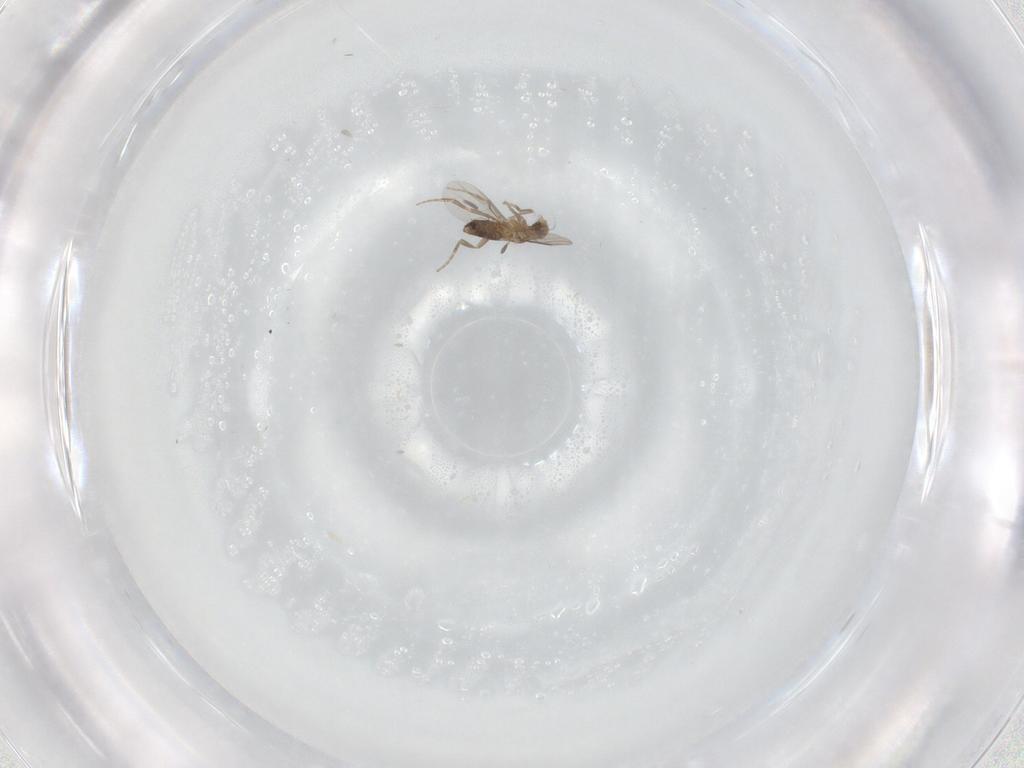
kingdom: Animalia
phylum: Arthropoda
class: Insecta
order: Diptera
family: Phoridae
